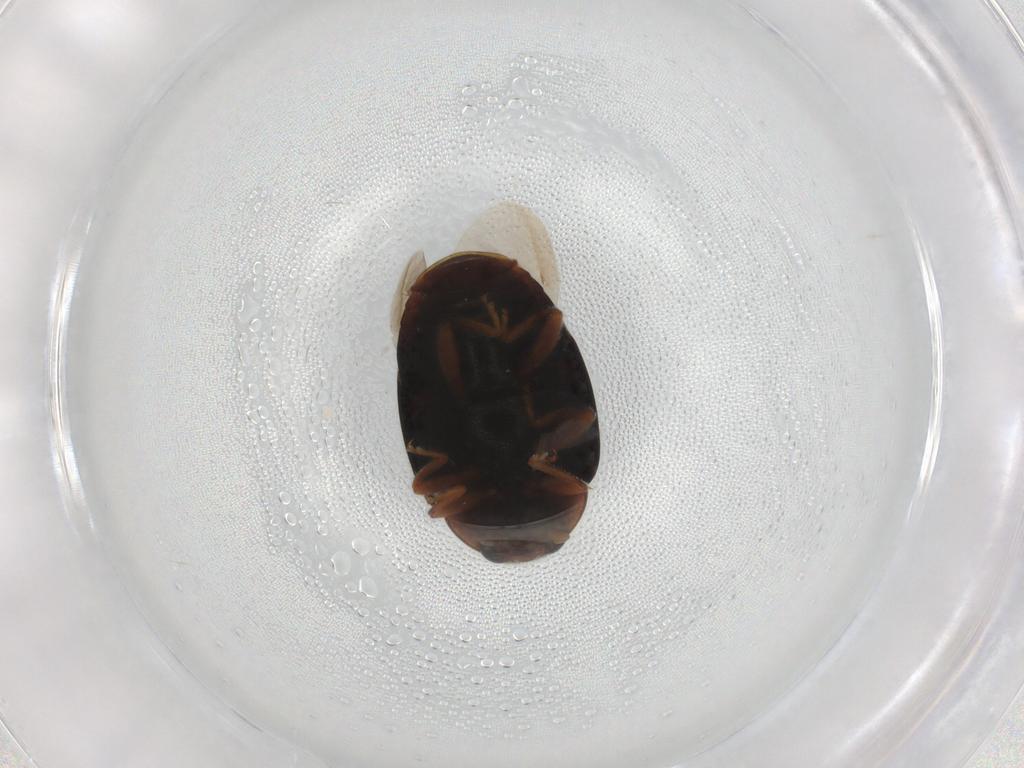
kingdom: Animalia
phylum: Arthropoda
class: Insecta
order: Coleoptera
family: Coccinellidae
